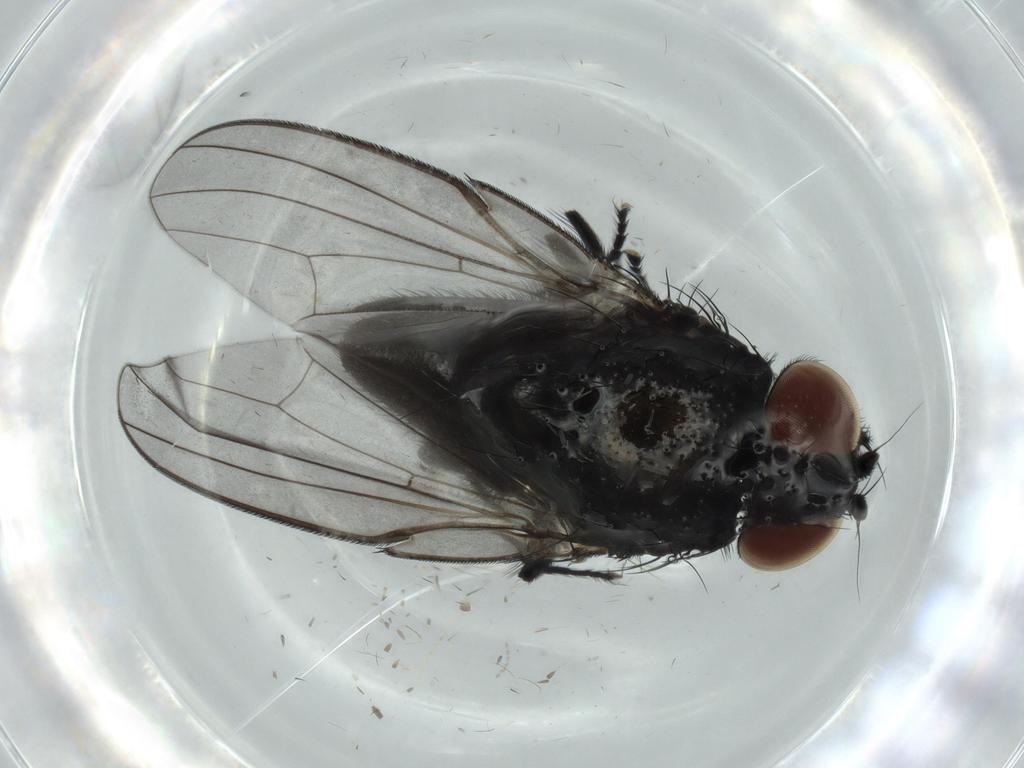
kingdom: Animalia
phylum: Arthropoda
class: Insecta
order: Diptera
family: Milichiidae
